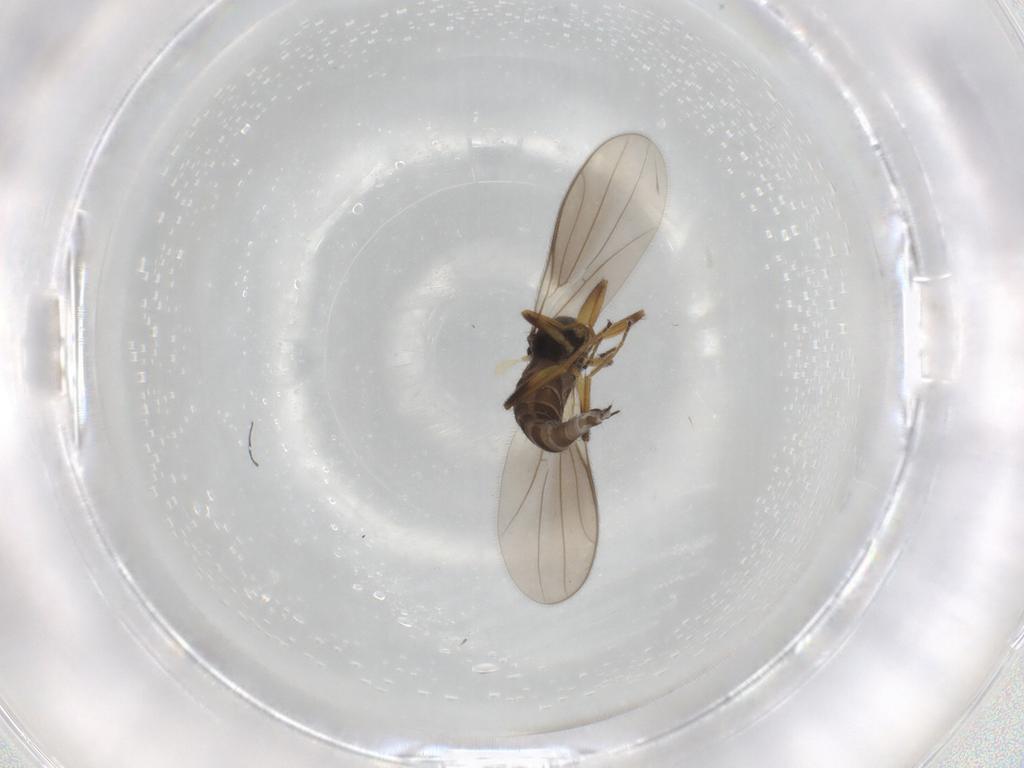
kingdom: Animalia
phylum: Arthropoda
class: Insecta
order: Diptera
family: Hybotidae
